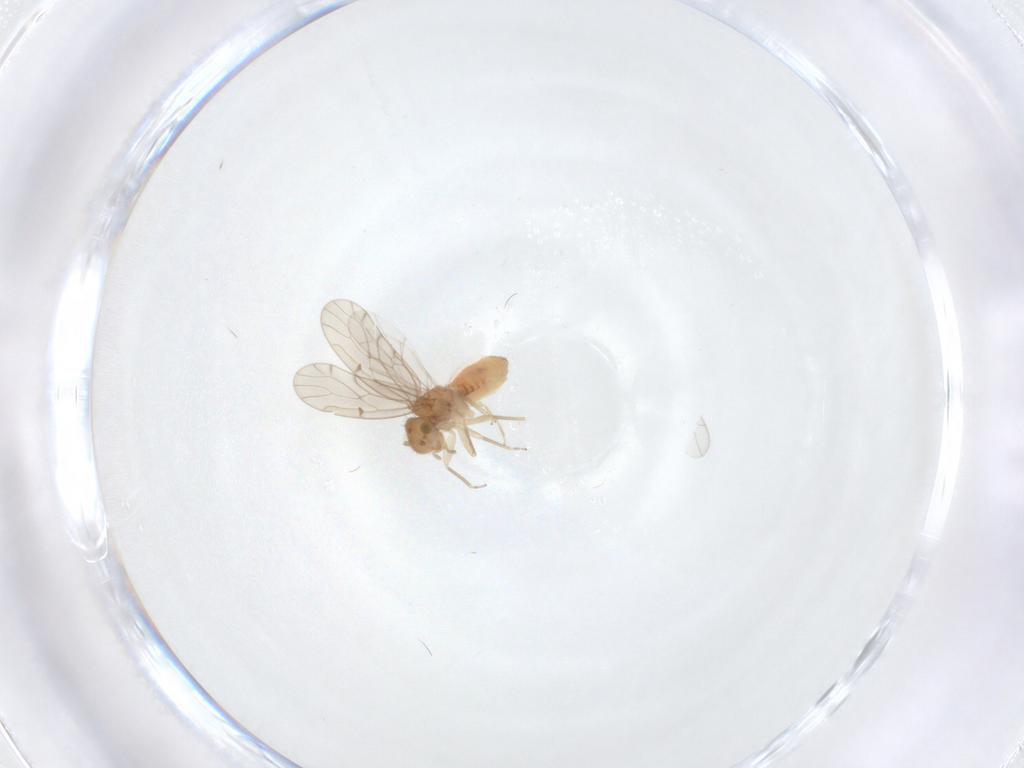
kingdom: Animalia
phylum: Arthropoda
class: Insecta
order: Psocodea
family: Ectopsocidae
